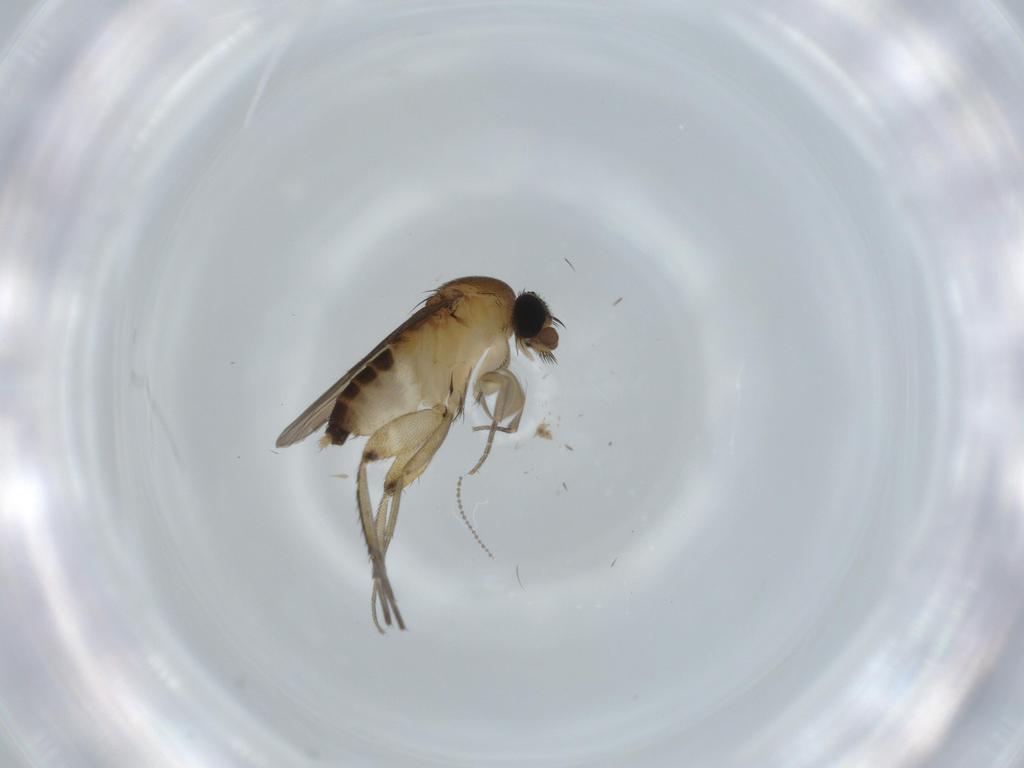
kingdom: Animalia
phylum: Arthropoda
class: Insecta
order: Diptera
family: Phoridae
